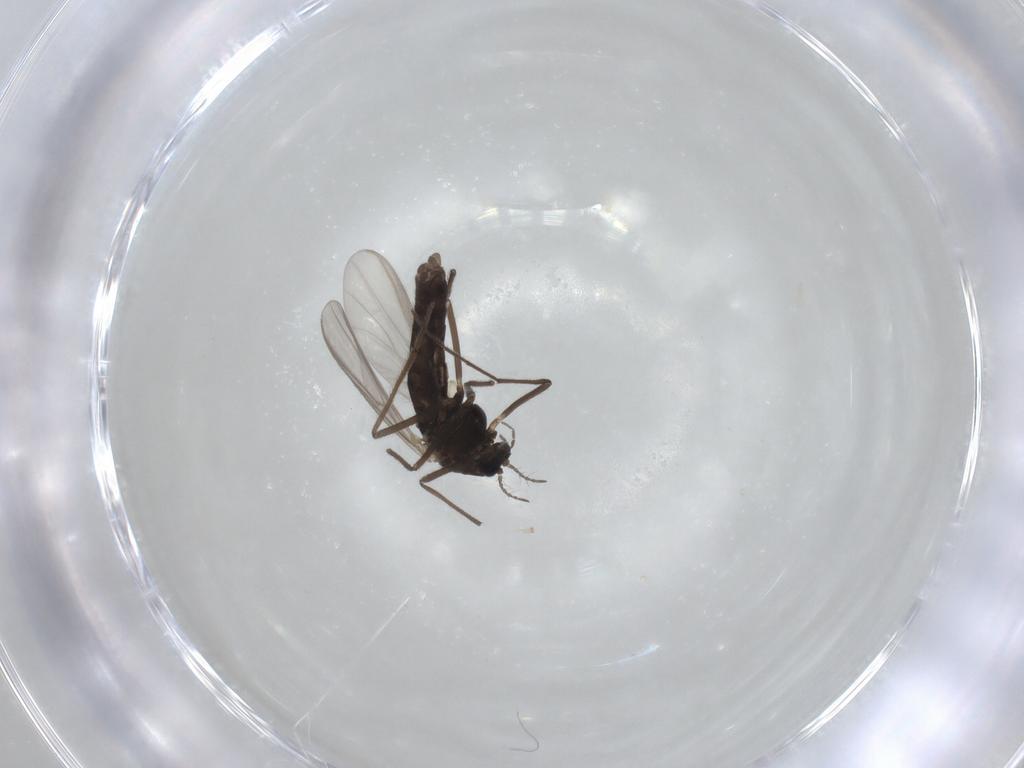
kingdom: Animalia
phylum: Arthropoda
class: Insecta
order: Diptera
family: Chironomidae
